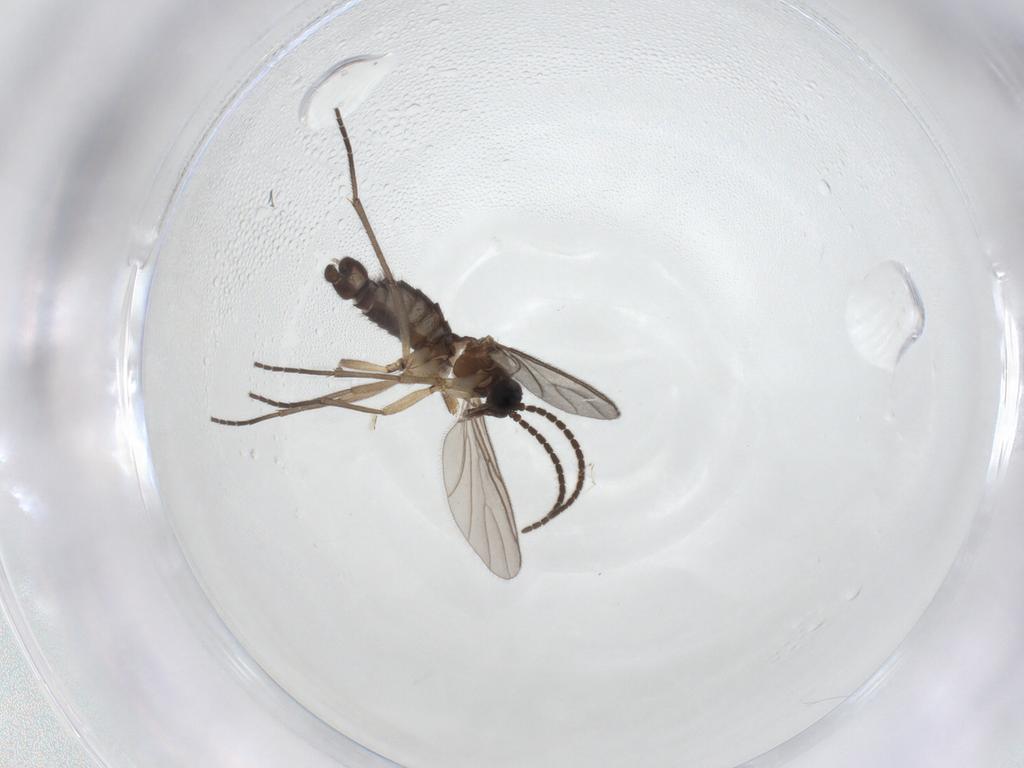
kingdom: Animalia
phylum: Arthropoda
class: Insecta
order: Diptera
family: Sciaridae
